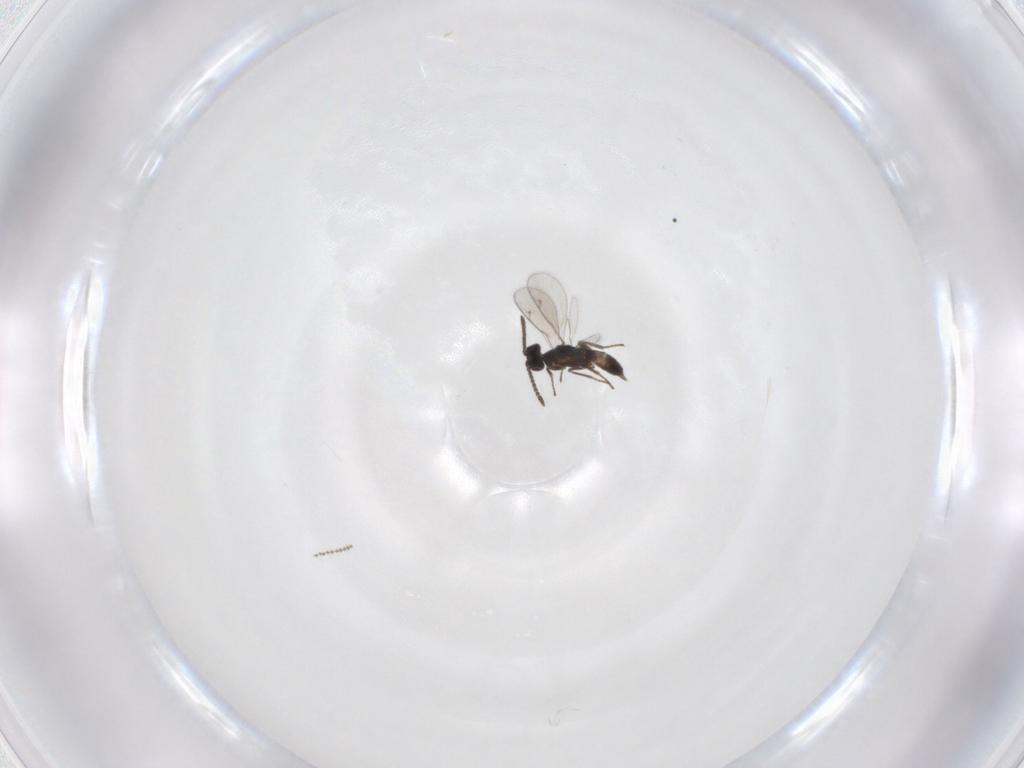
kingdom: Animalia
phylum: Arthropoda
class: Insecta
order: Hymenoptera
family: Eupelmidae
